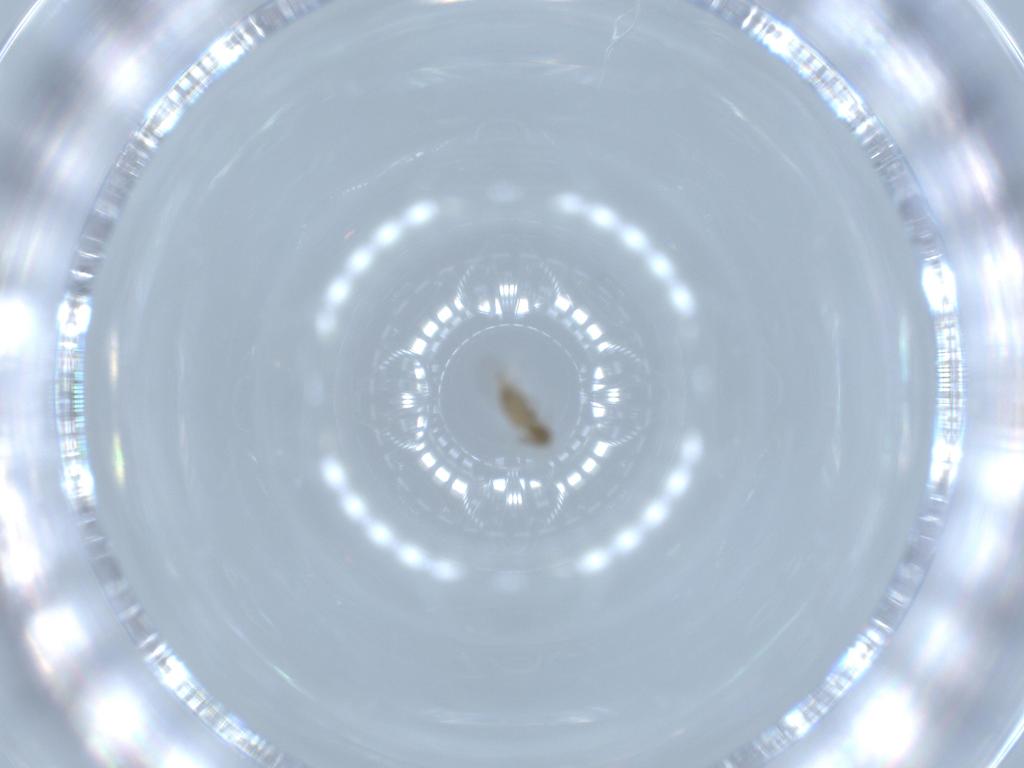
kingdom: Animalia
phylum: Arthropoda
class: Insecta
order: Diptera
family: Cecidomyiidae
